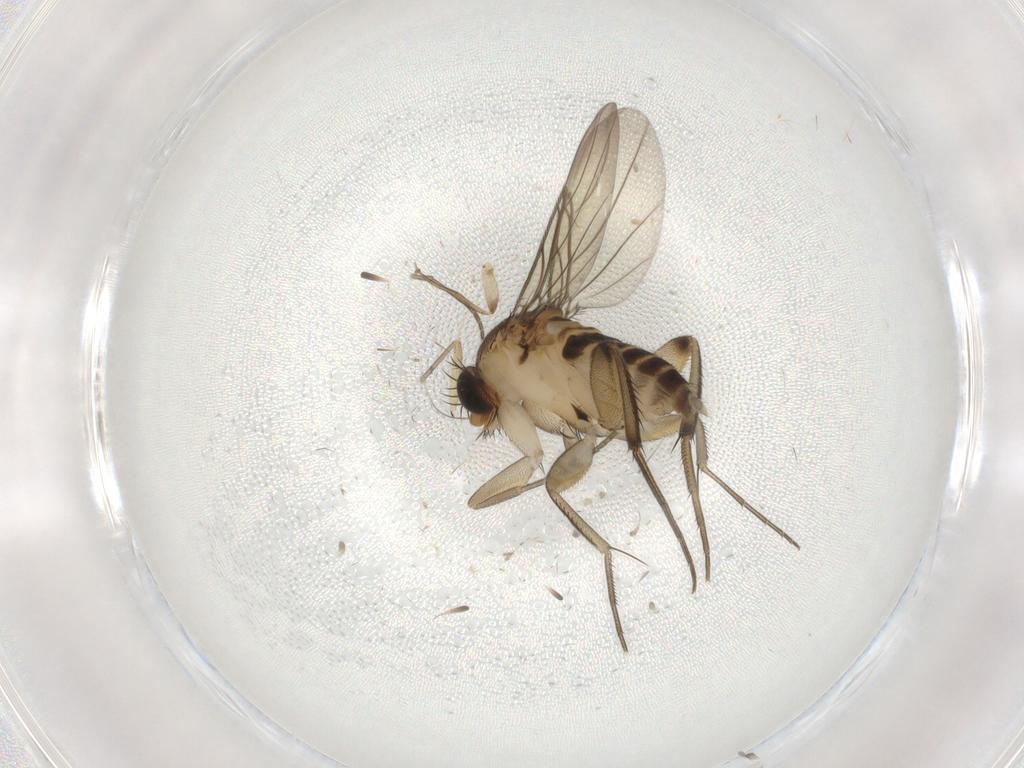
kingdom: Animalia
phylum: Arthropoda
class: Insecta
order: Diptera
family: Phoridae
